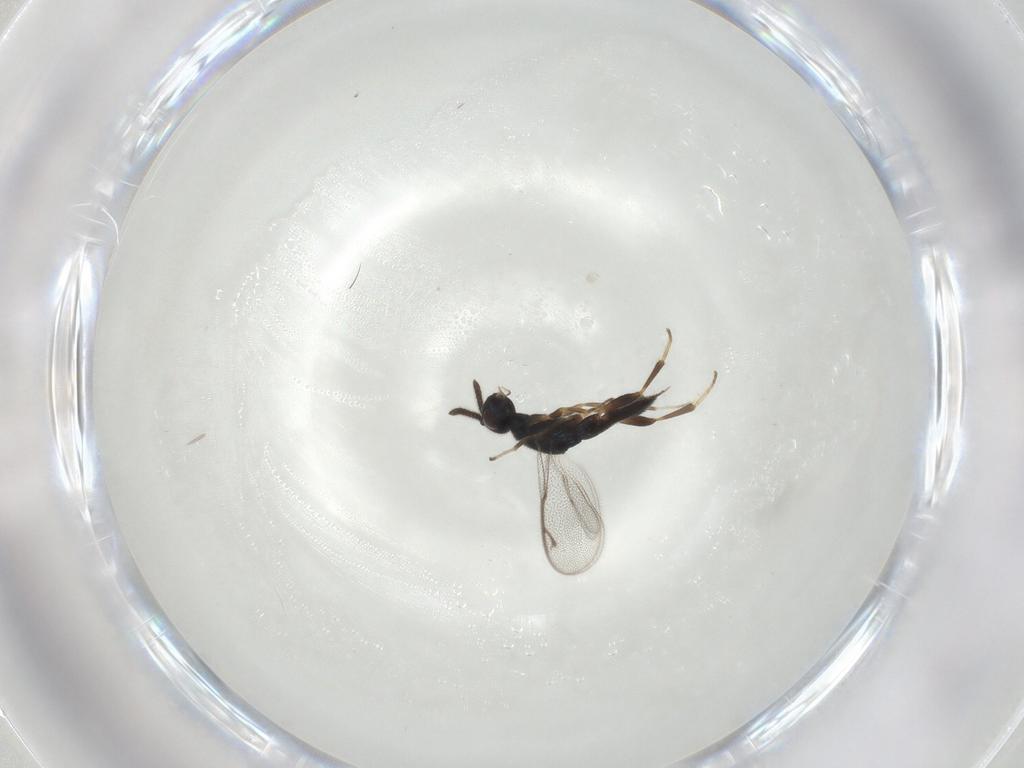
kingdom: Animalia
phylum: Arthropoda
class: Insecta
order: Hymenoptera
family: Cleonyminae
